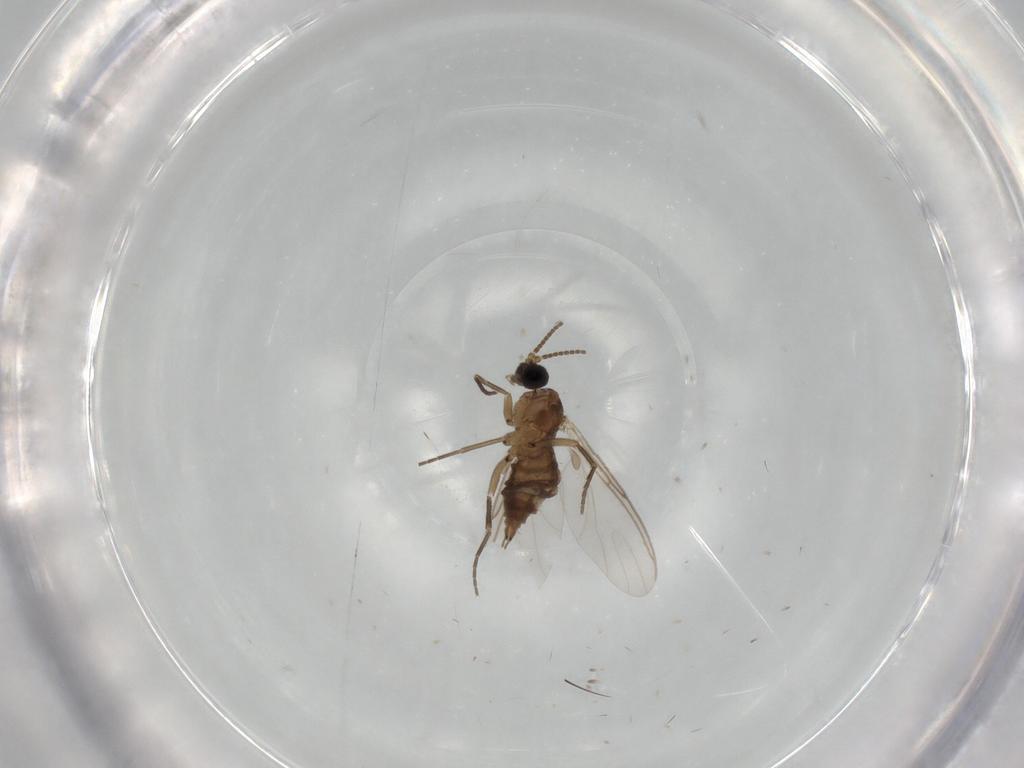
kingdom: Animalia
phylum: Arthropoda
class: Insecta
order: Diptera
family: Sciaridae
